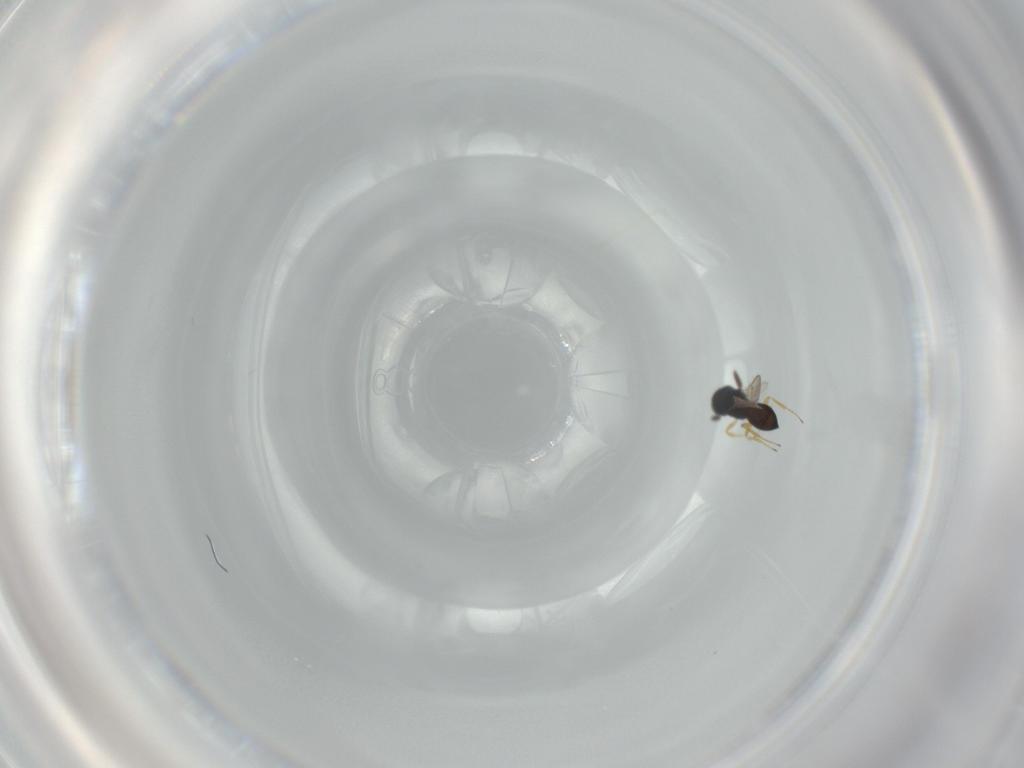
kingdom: Animalia
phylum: Arthropoda
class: Insecta
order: Hymenoptera
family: Scelionidae
